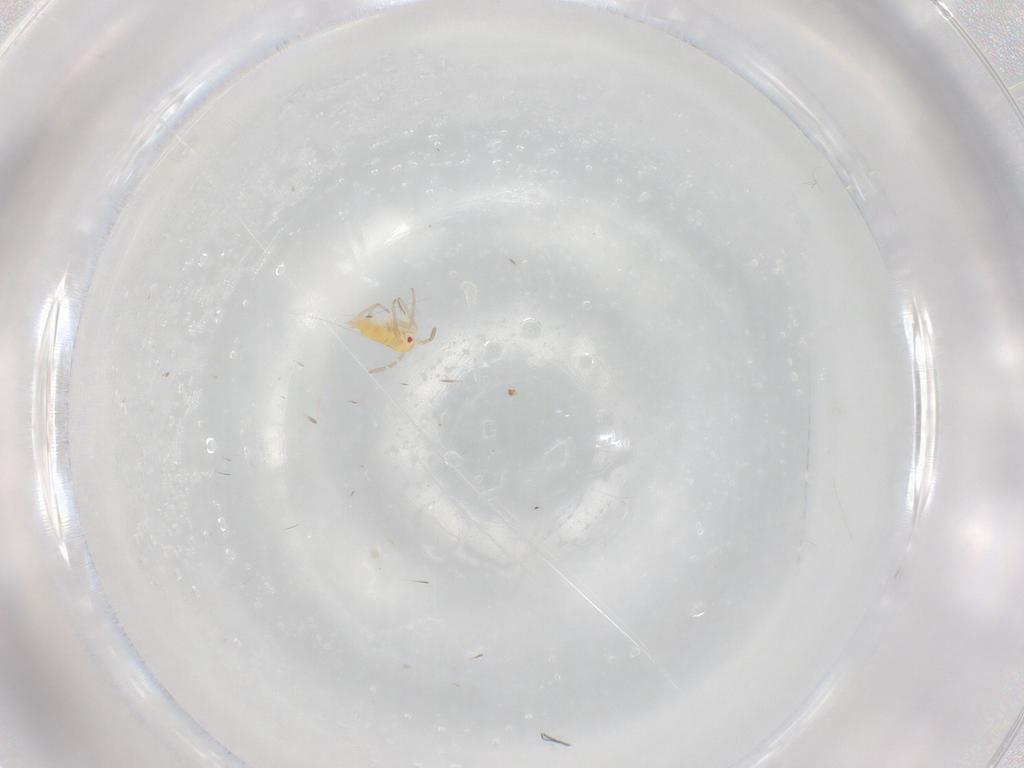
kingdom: Animalia
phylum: Arthropoda
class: Insecta
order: Hemiptera
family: Miridae
